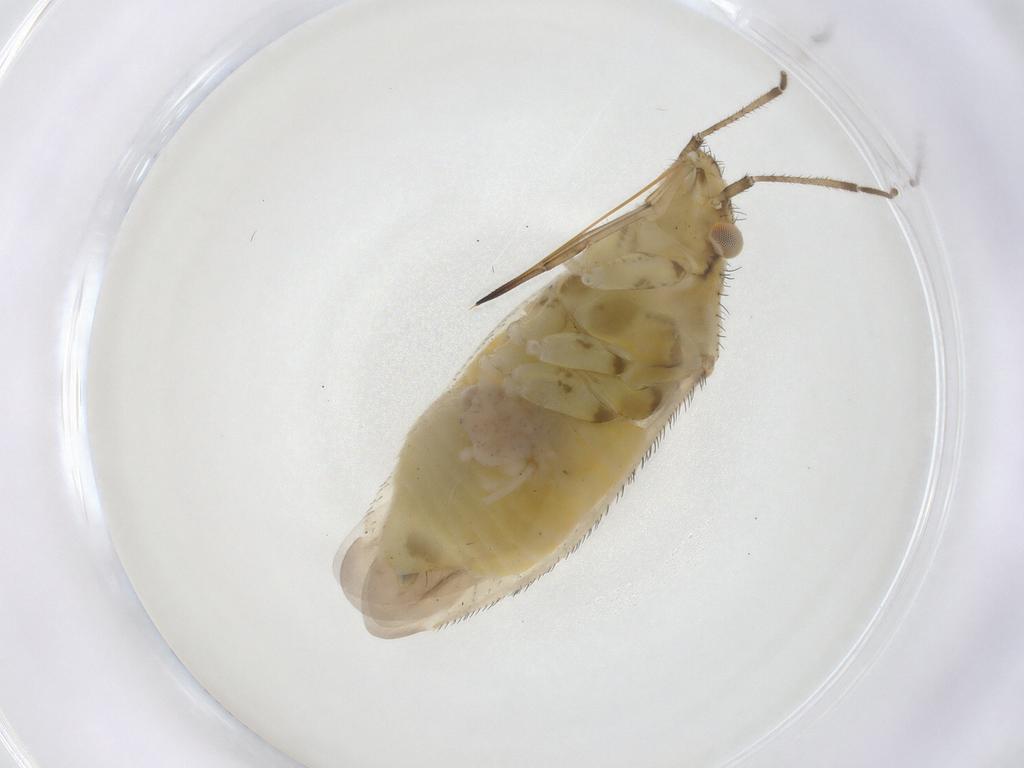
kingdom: Animalia
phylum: Arthropoda
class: Insecta
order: Hemiptera
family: Miridae
